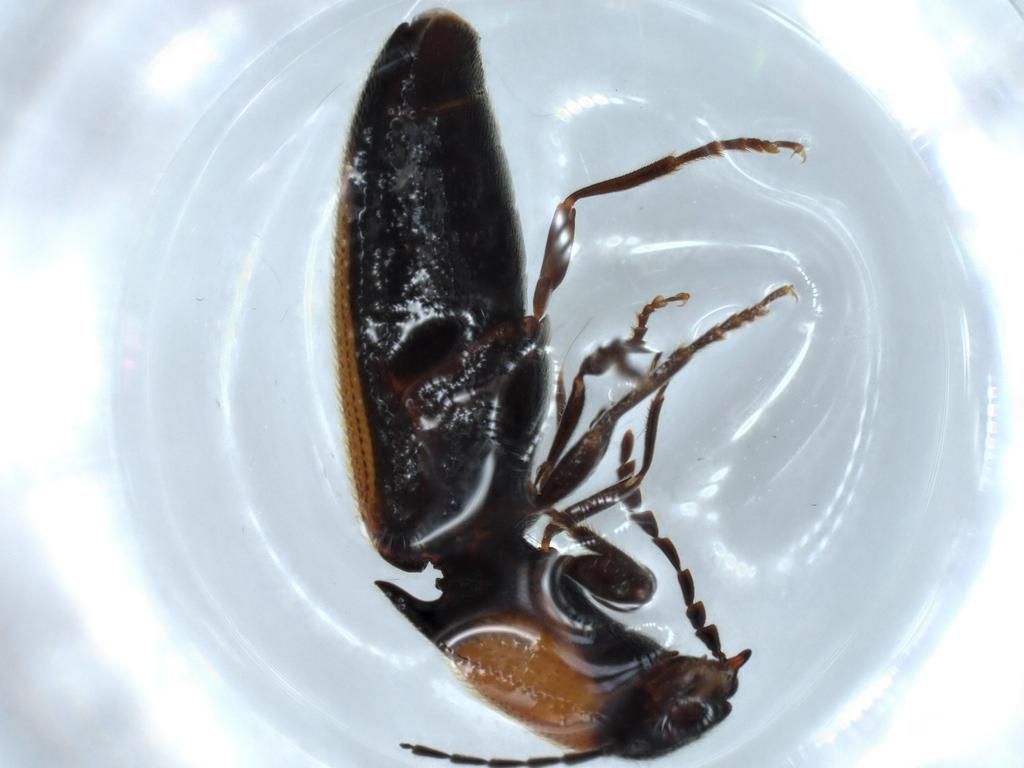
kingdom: Animalia
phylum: Arthropoda
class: Insecta
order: Coleoptera
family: Elateridae
